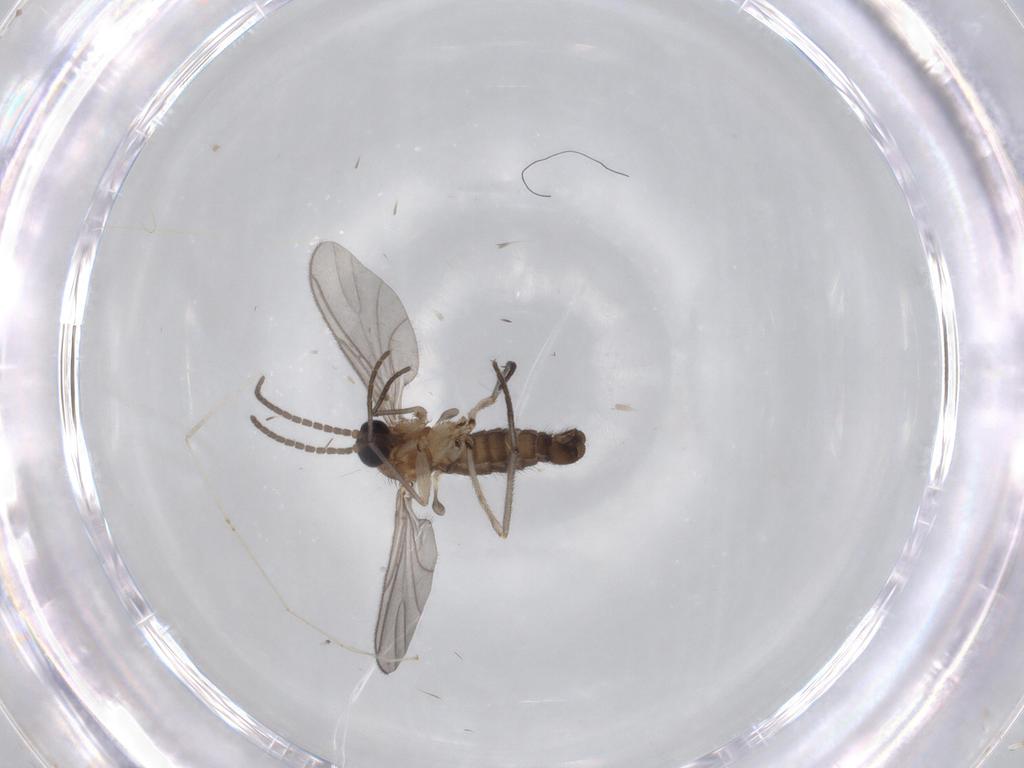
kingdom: Animalia
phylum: Arthropoda
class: Insecta
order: Diptera
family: Sciaridae
